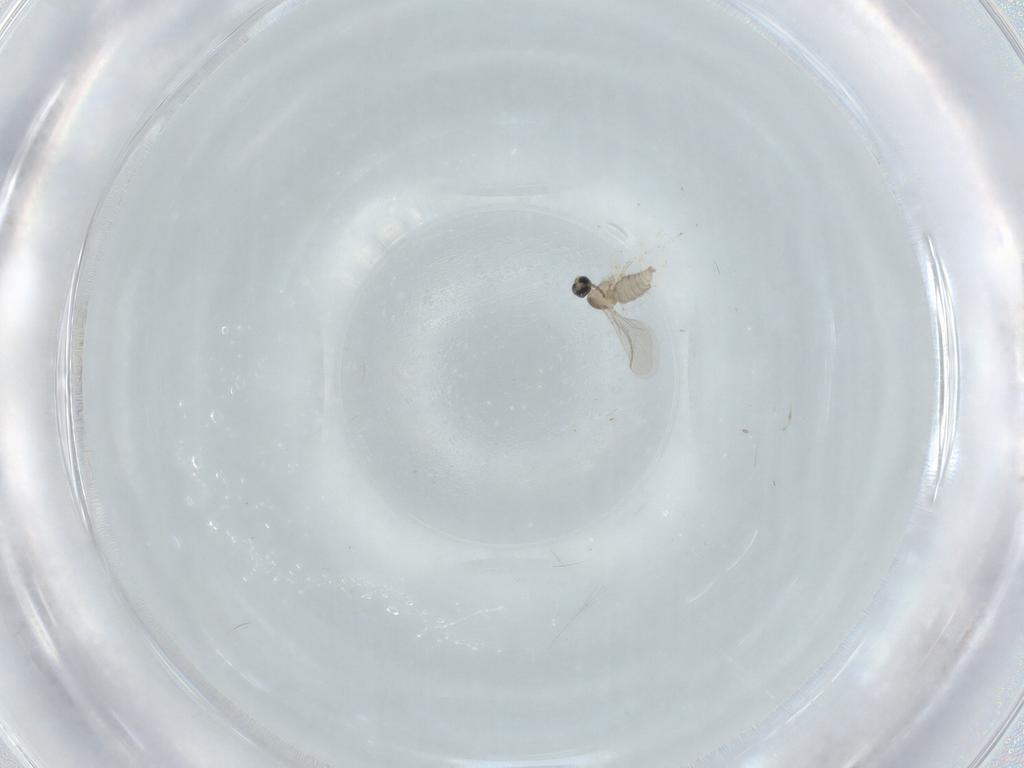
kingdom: Animalia
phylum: Arthropoda
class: Insecta
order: Diptera
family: Cecidomyiidae
